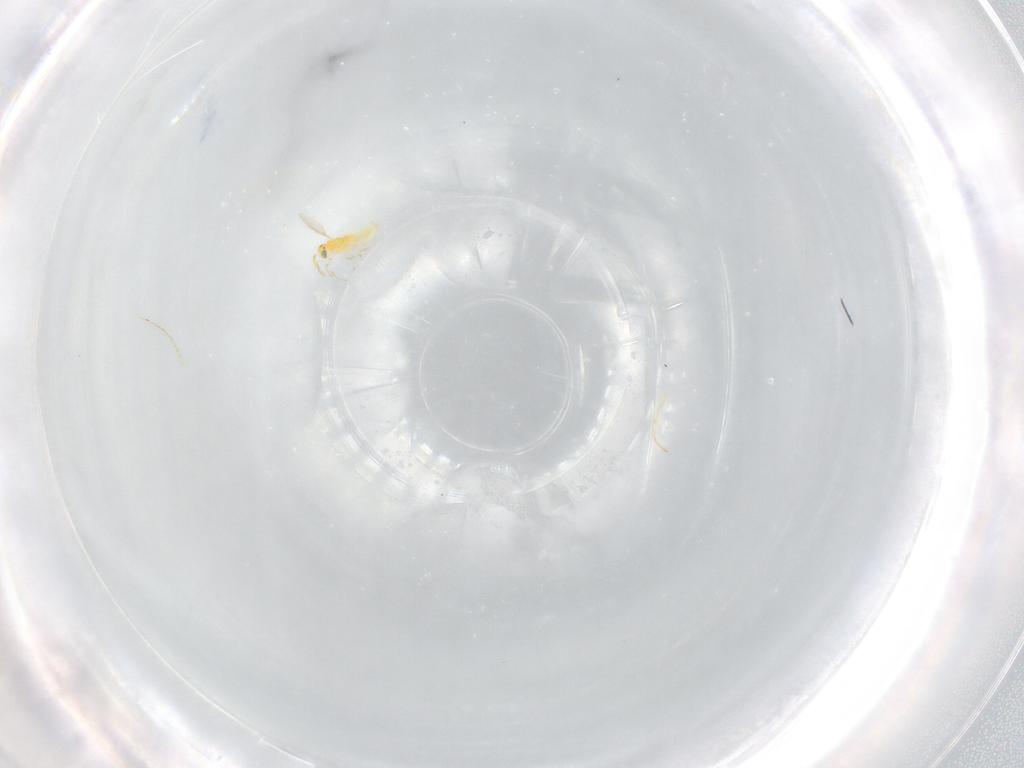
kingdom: Animalia
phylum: Arthropoda
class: Insecta
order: Hymenoptera
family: Aphelinidae
